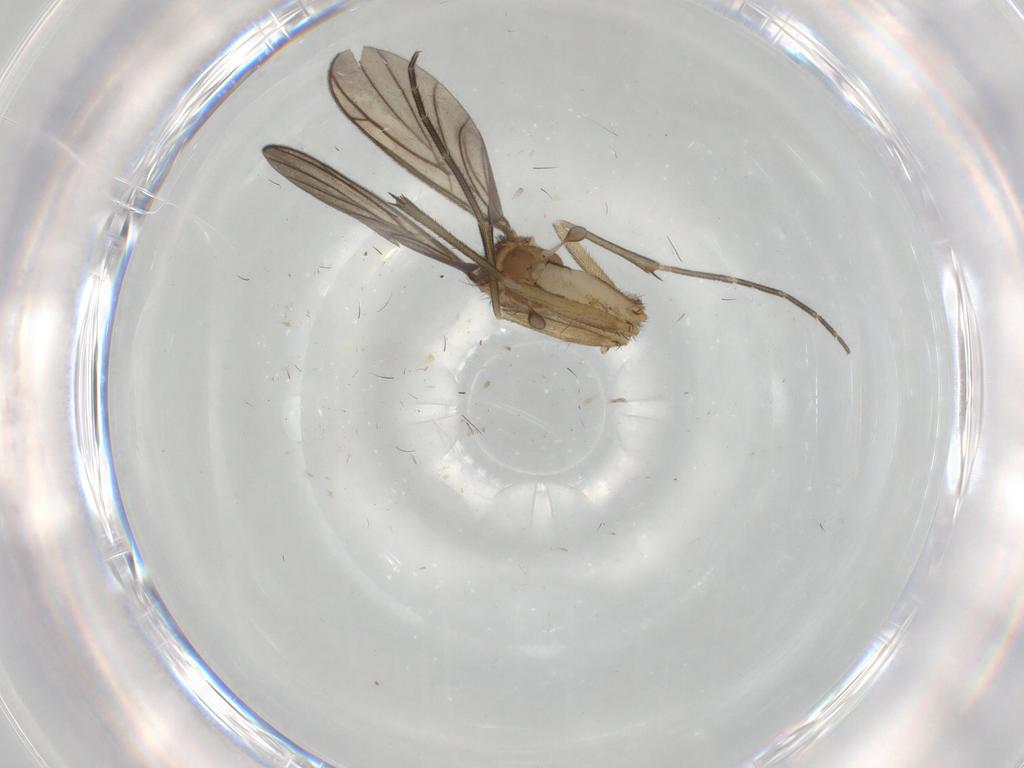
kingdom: Animalia
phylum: Arthropoda
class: Insecta
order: Diptera
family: Keroplatidae
